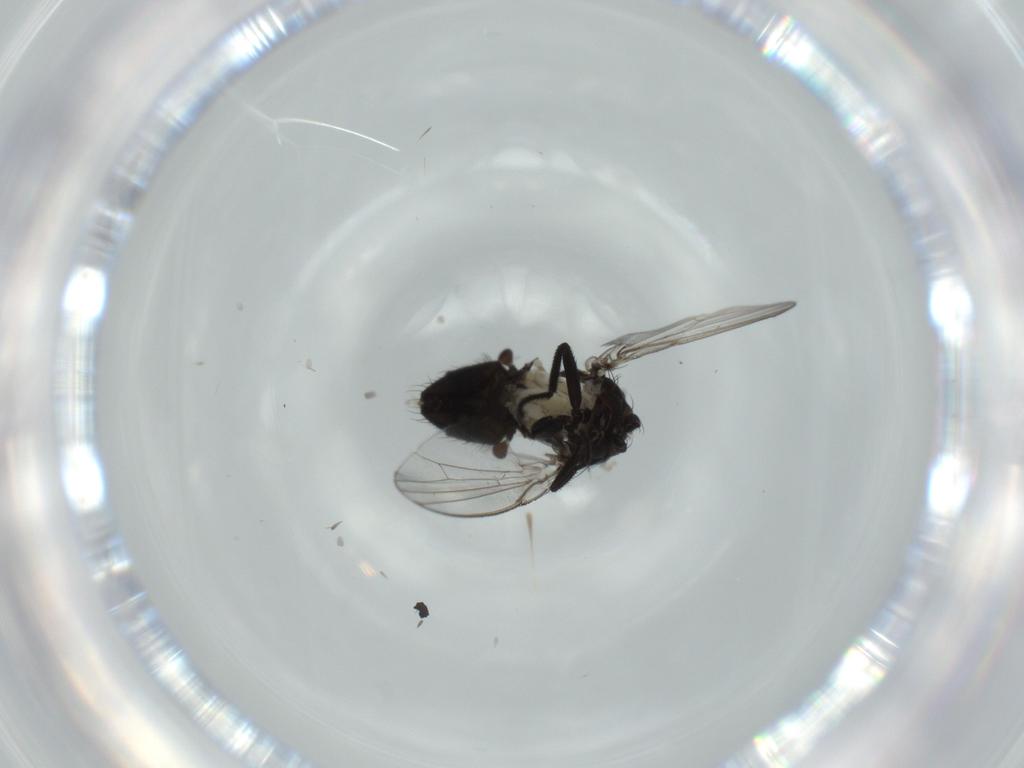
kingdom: Animalia
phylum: Arthropoda
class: Insecta
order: Diptera
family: Milichiidae
